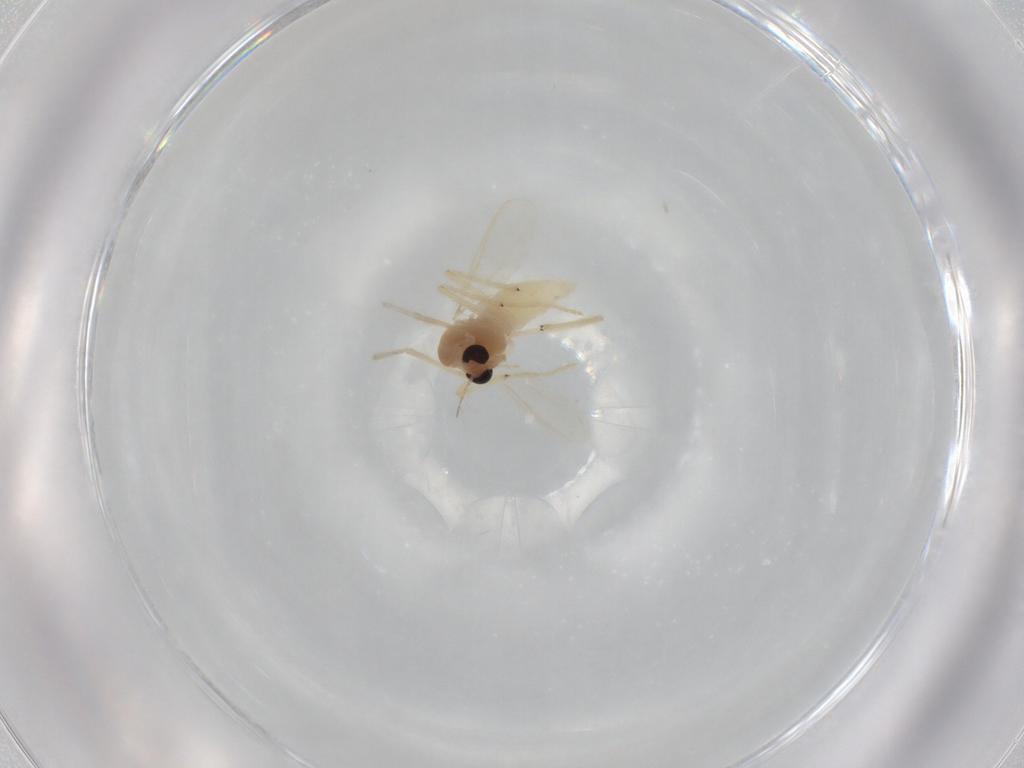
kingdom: Animalia
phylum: Arthropoda
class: Insecta
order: Diptera
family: Chironomidae
